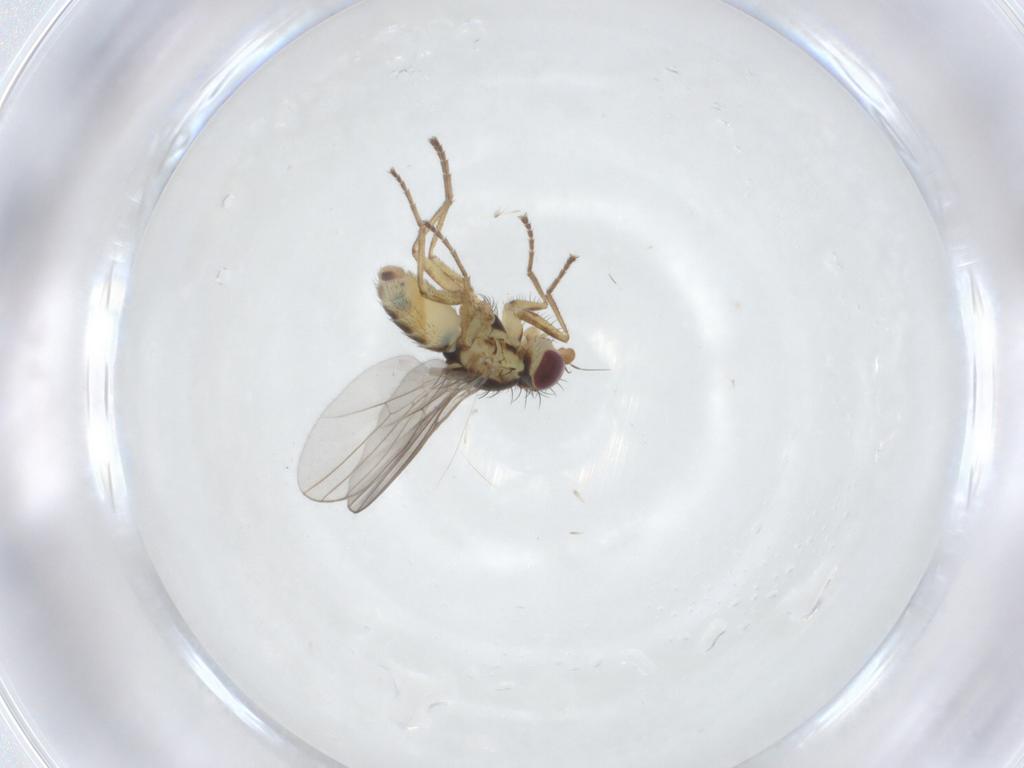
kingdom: Animalia
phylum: Arthropoda
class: Insecta
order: Diptera
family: Agromyzidae
